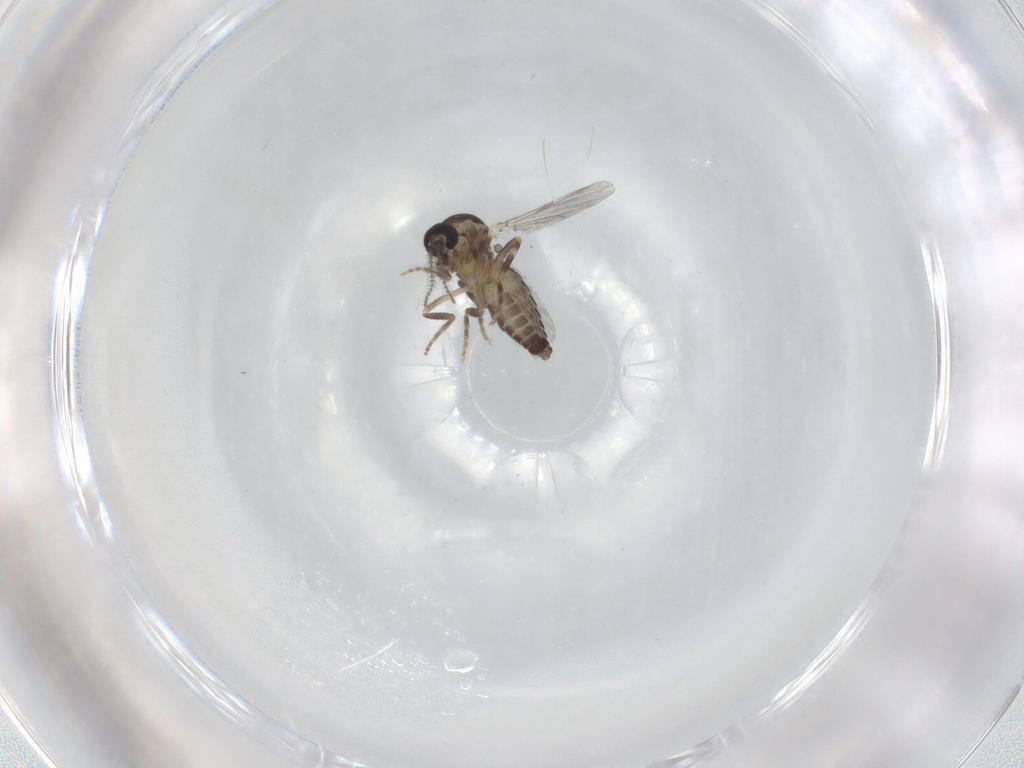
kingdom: Animalia
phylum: Arthropoda
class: Insecta
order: Diptera
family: Ceratopogonidae
